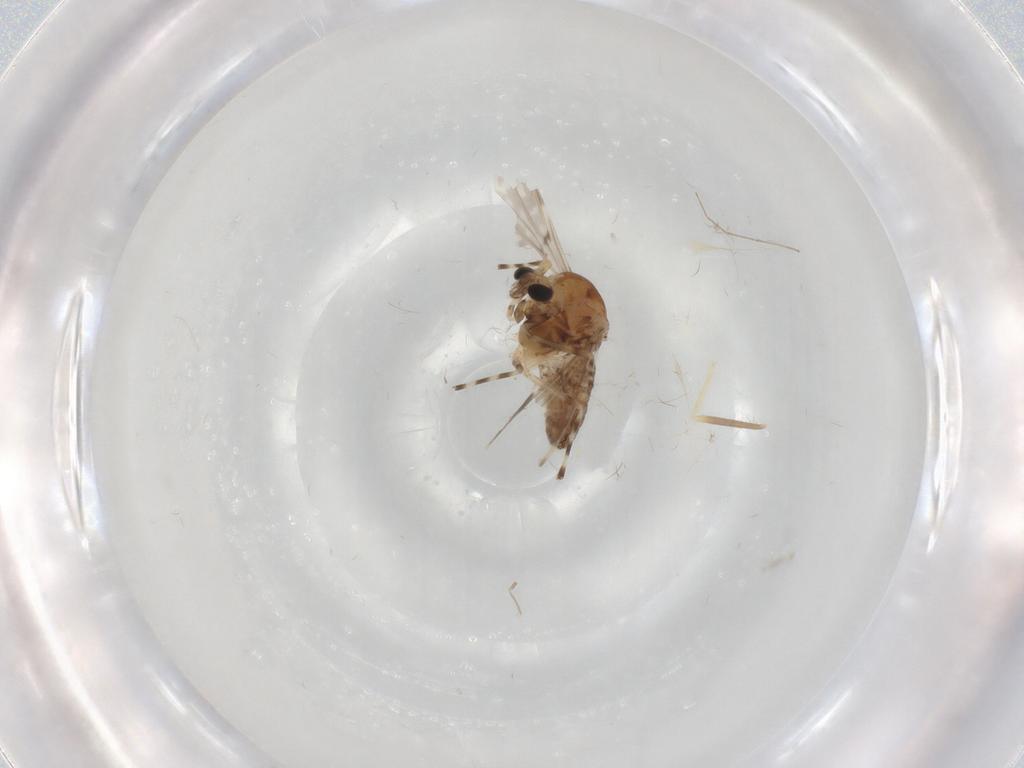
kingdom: Animalia
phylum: Arthropoda
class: Insecta
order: Diptera
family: Chironomidae
